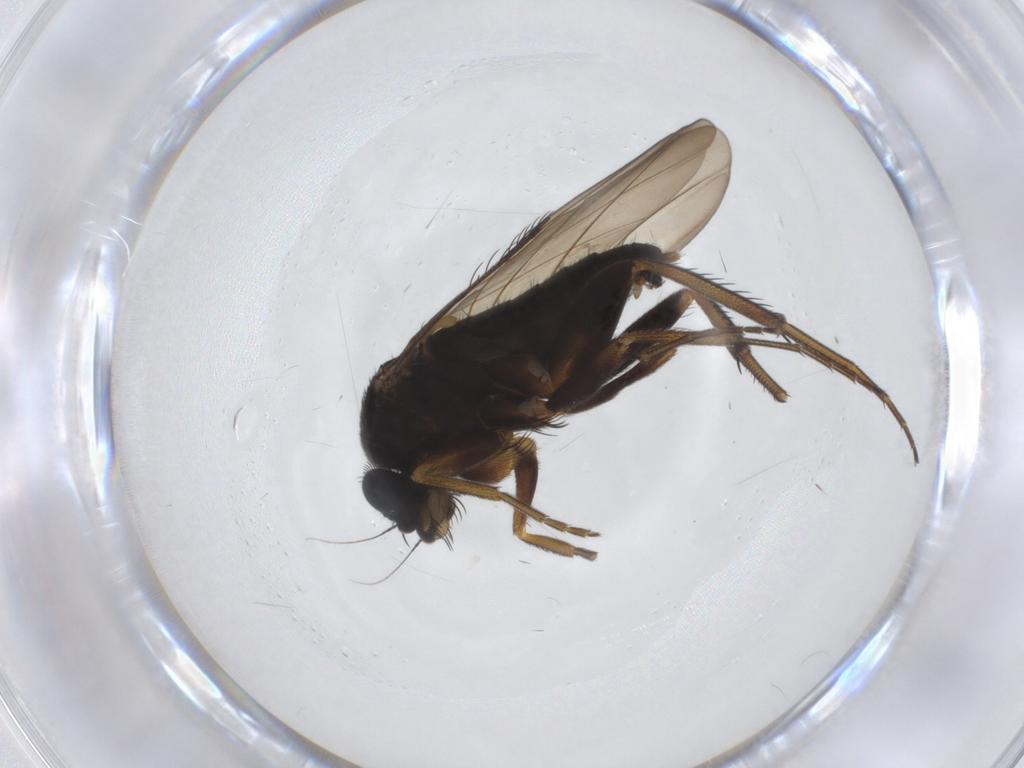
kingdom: Animalia
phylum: Arthropoda
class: Insecta
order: Diptera
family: Phoridae
